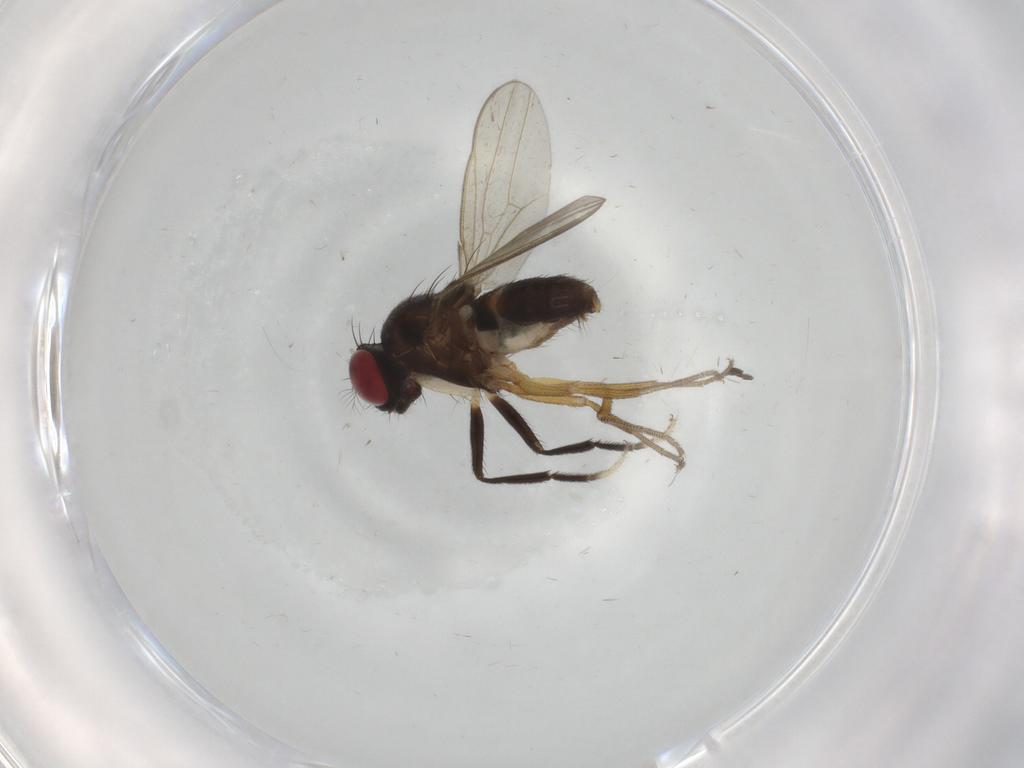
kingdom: Animalia
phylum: Arthropoda
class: Insecta
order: Diptera
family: Drosophilidae
